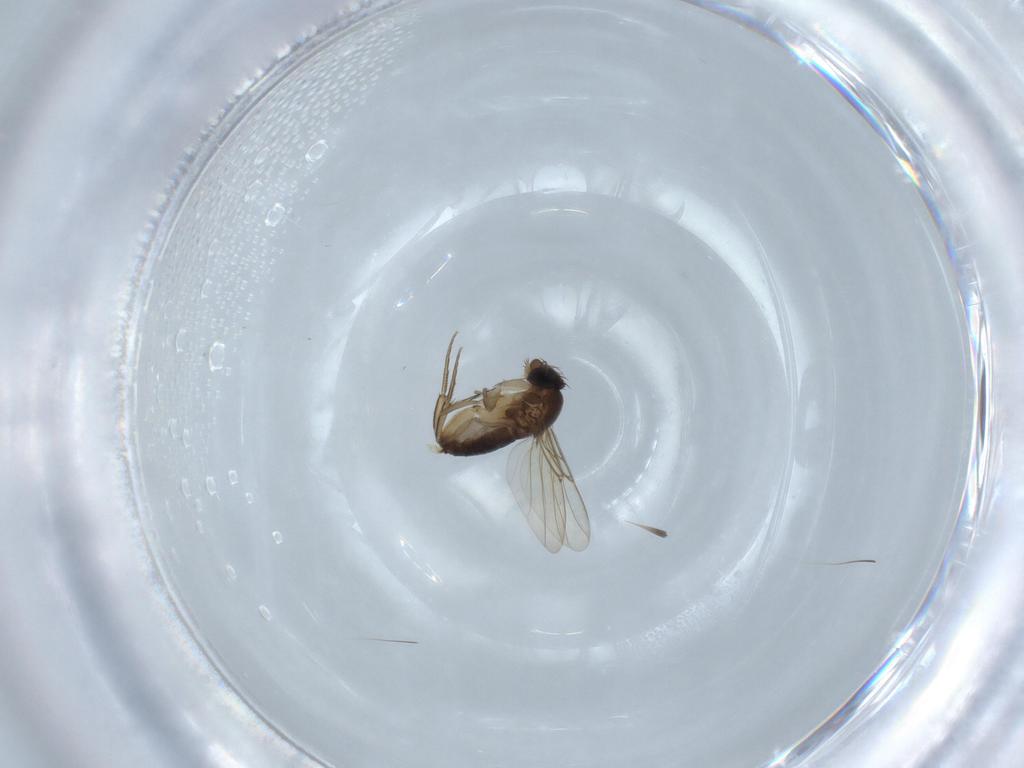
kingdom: Animalia
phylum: Arthropoda
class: Insecta
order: Diptera
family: Phoridae
